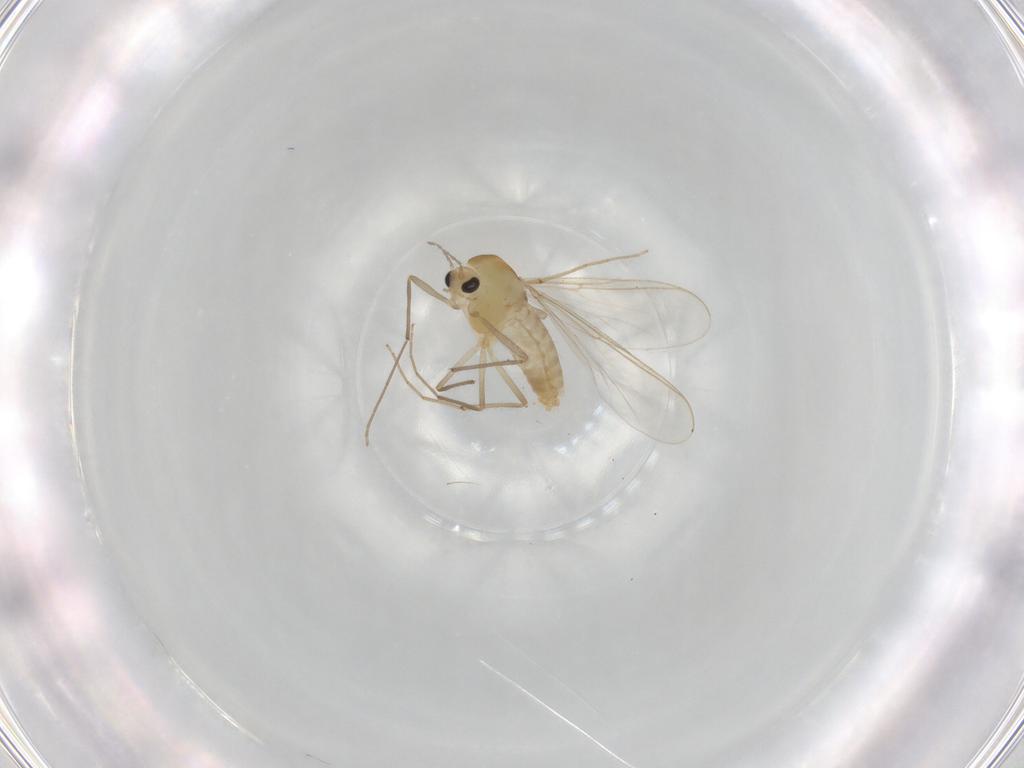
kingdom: Animalia
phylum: Arthropoda
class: Insecta
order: Diptera
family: Chironomidae
